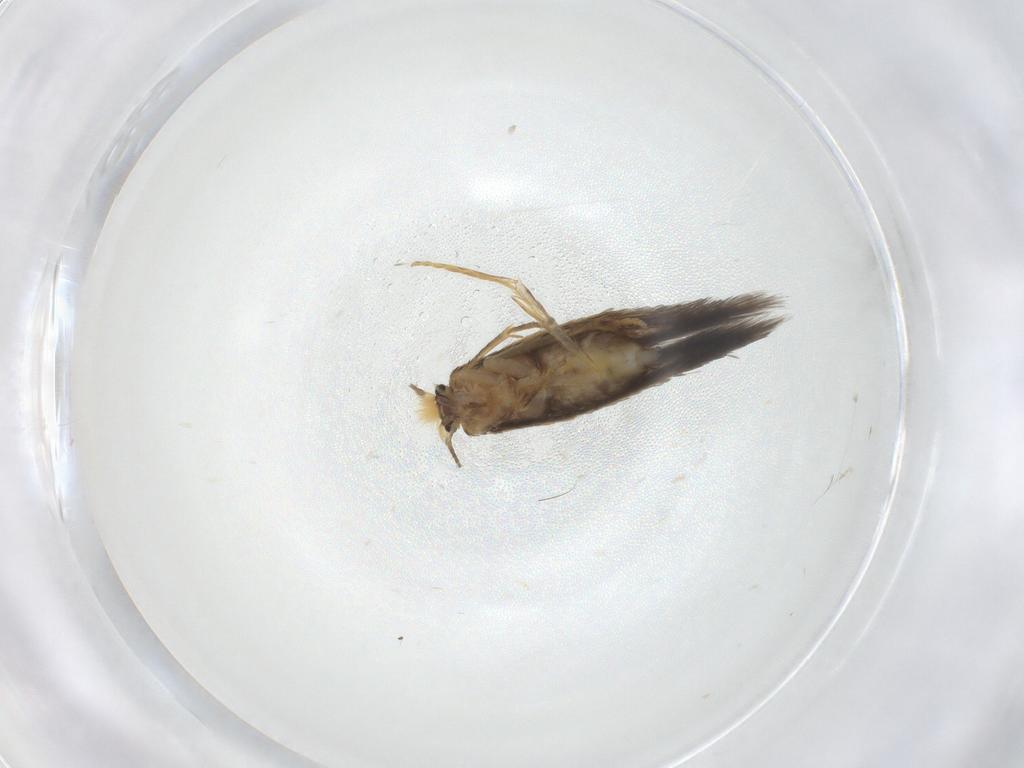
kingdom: Animalia
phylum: Arthropoda
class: Insecta
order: Lepidoptera
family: Nepticulidae
